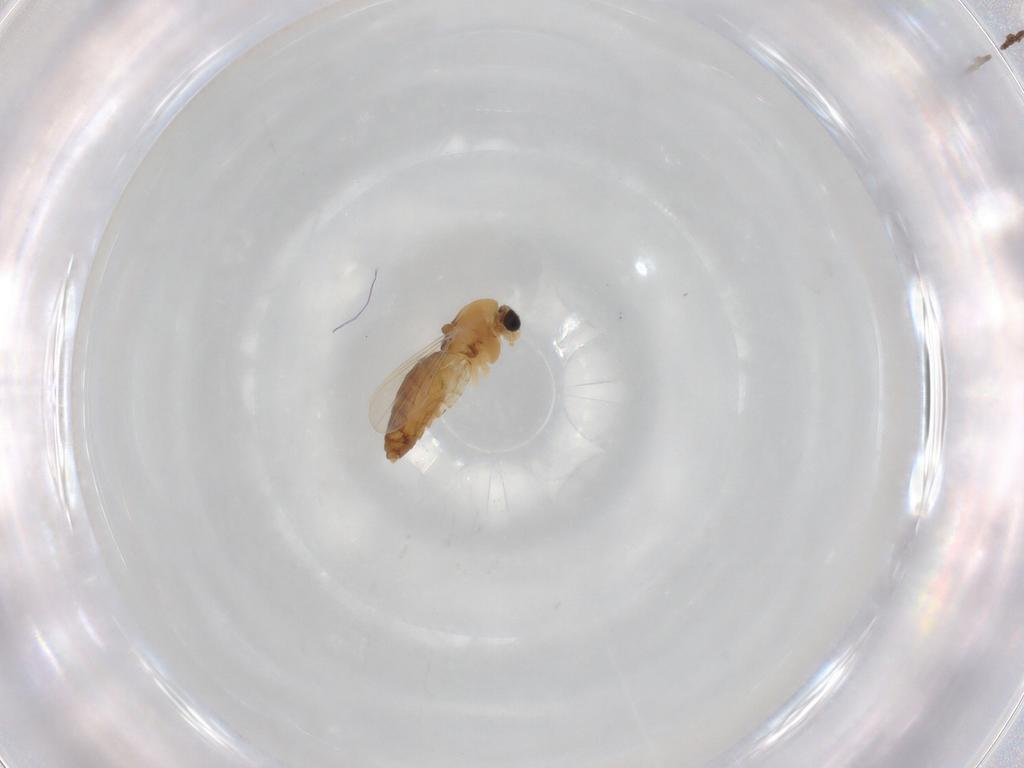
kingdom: Animalia
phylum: Arthropoda
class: Insecta
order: Diptera
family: Chironomidae
